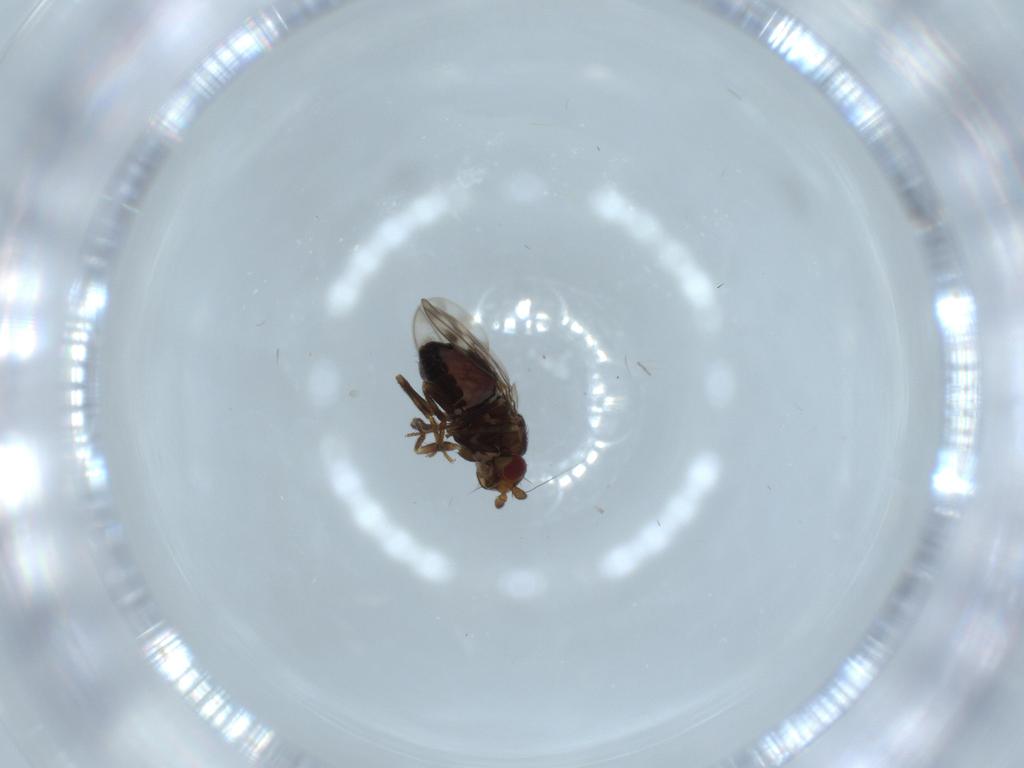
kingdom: Animalia
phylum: Arthropoda
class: Insecta
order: Diptera
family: Sphaeroceridae
